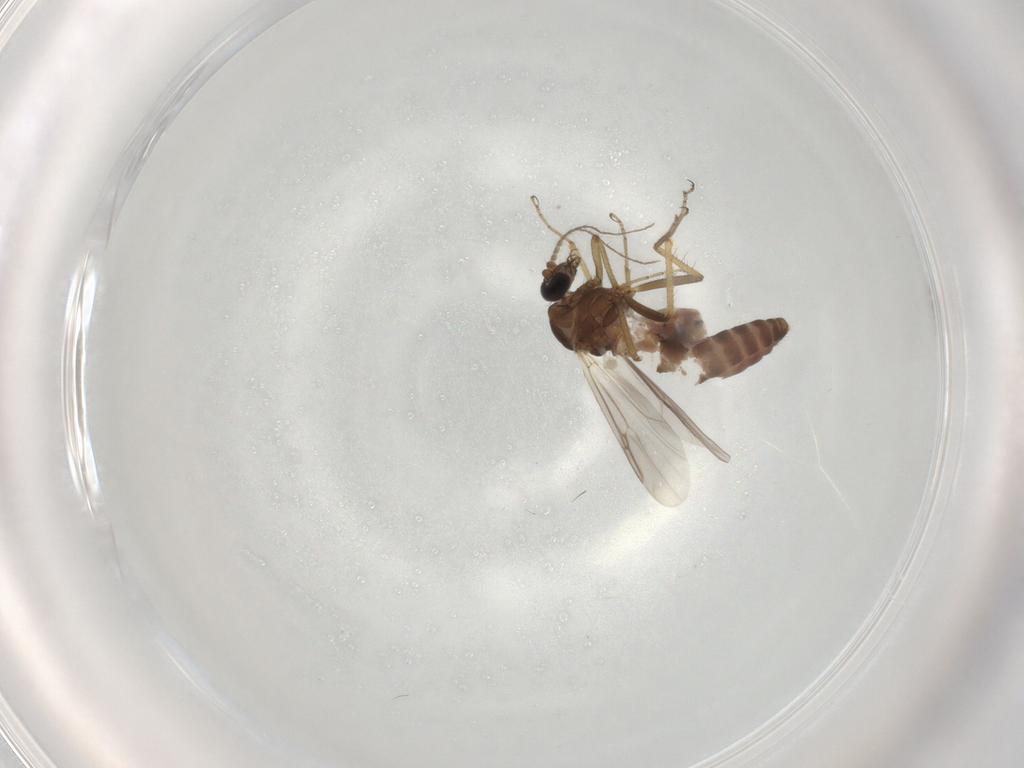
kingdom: Animalia
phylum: Arthropoda
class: Insecta
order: Diptera
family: Ceratopogonidae
